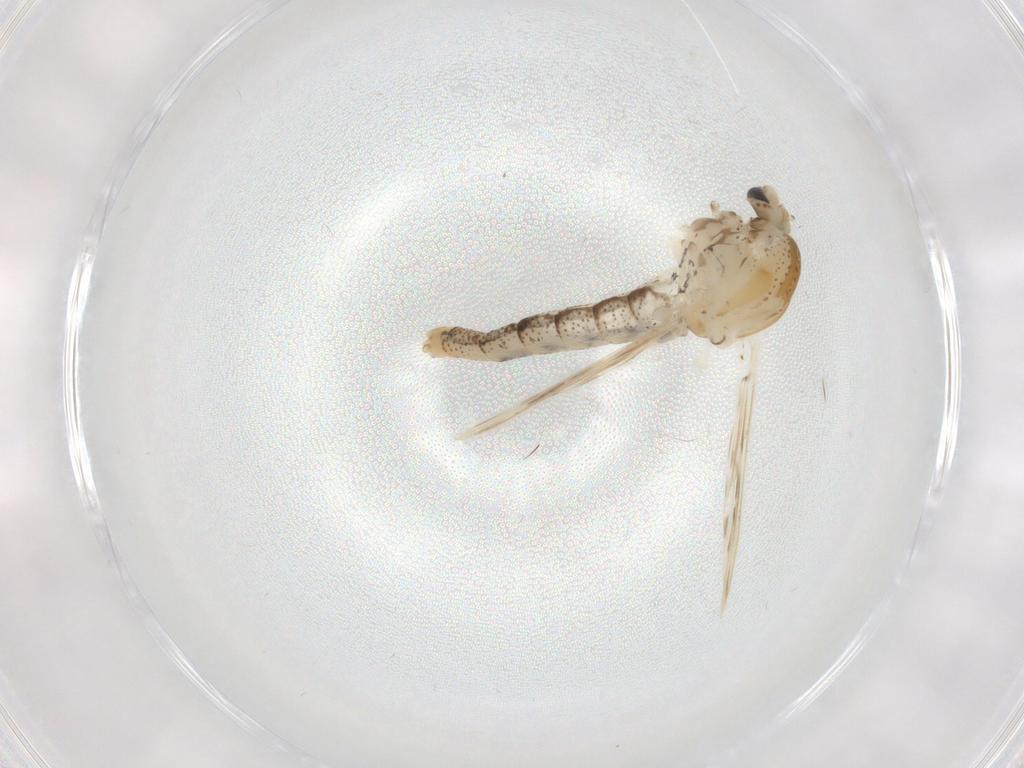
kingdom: Animalia
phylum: Arthropoda
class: Insecta
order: Diptera
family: Chaoboridae
